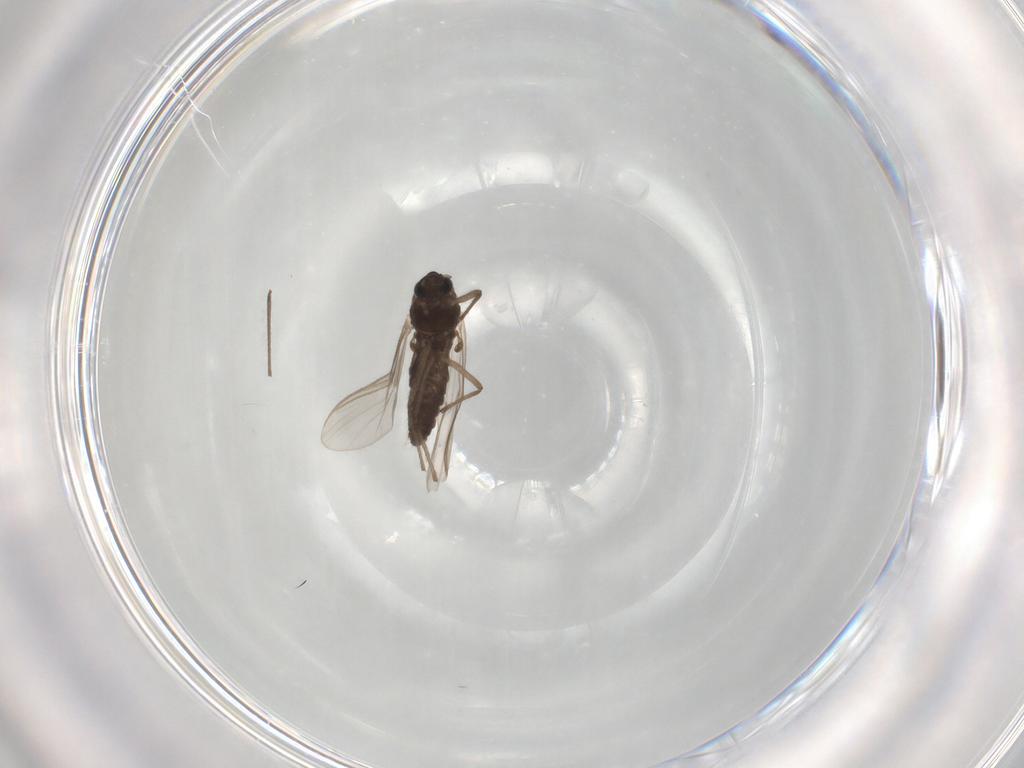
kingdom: Animalia
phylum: Arthropoda
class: Insecta
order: Diptera
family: Chironomidae
